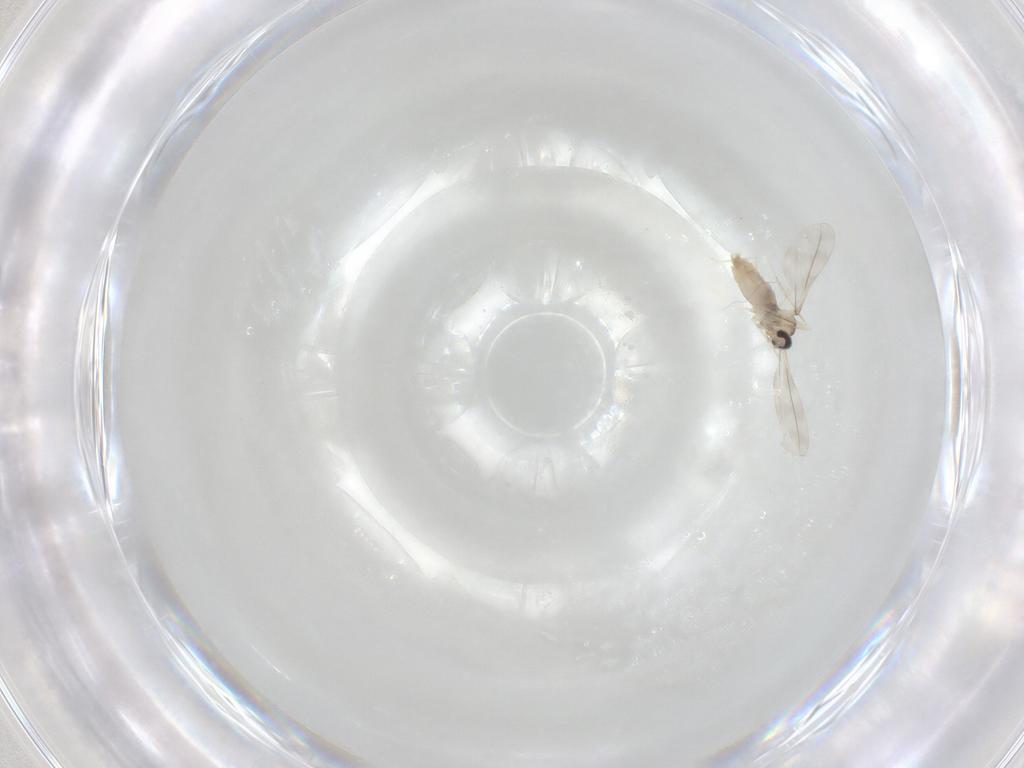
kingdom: Animalia
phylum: Arthropoda
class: Insecta
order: Diptera
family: Cecidomyiidae
